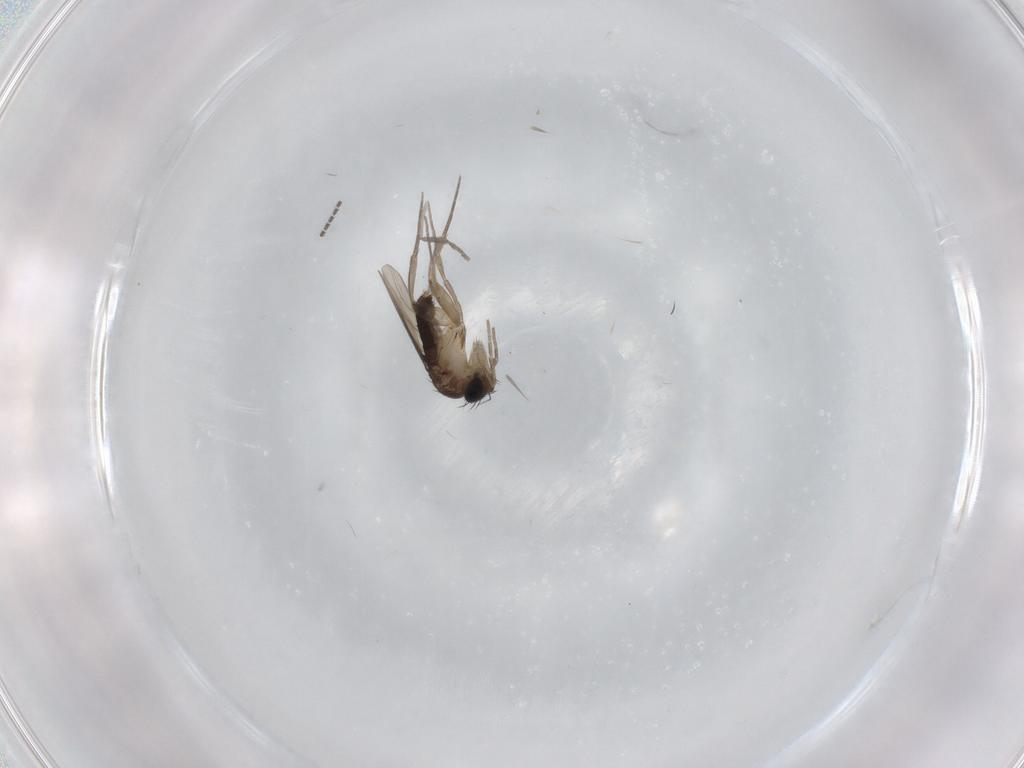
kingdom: Animalia
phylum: Arthropoda
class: Insecta
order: Diptera
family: Phoridae
